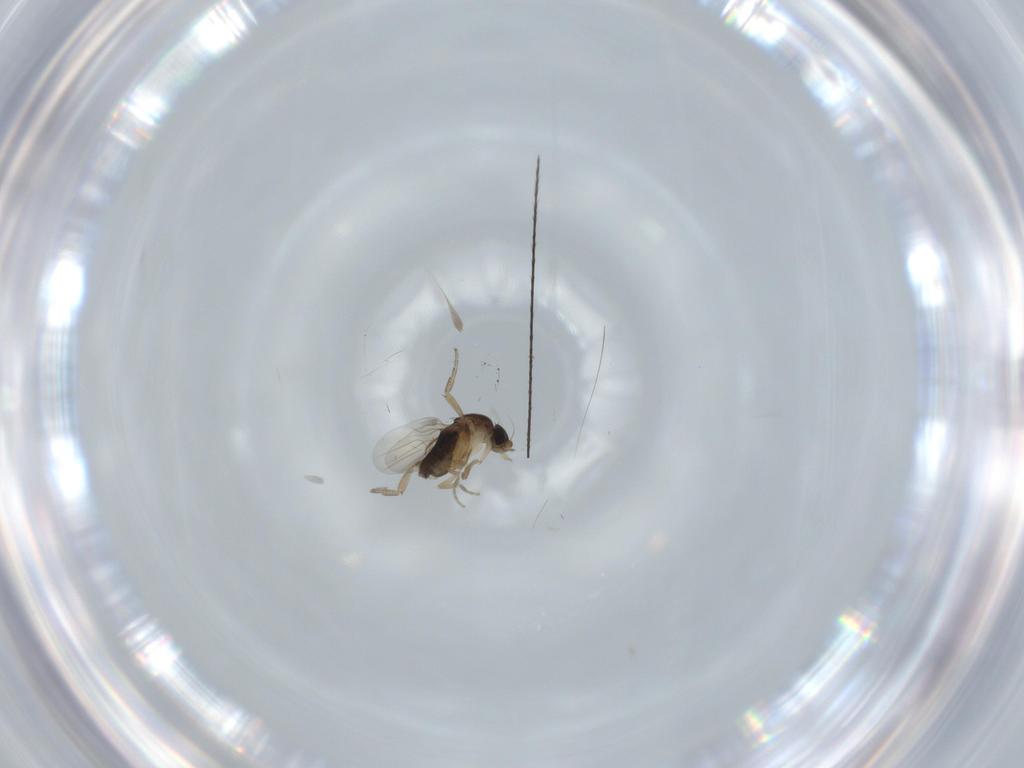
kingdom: Animalia
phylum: Arthropoda
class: Insecta
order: Diptera
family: Phoridae
